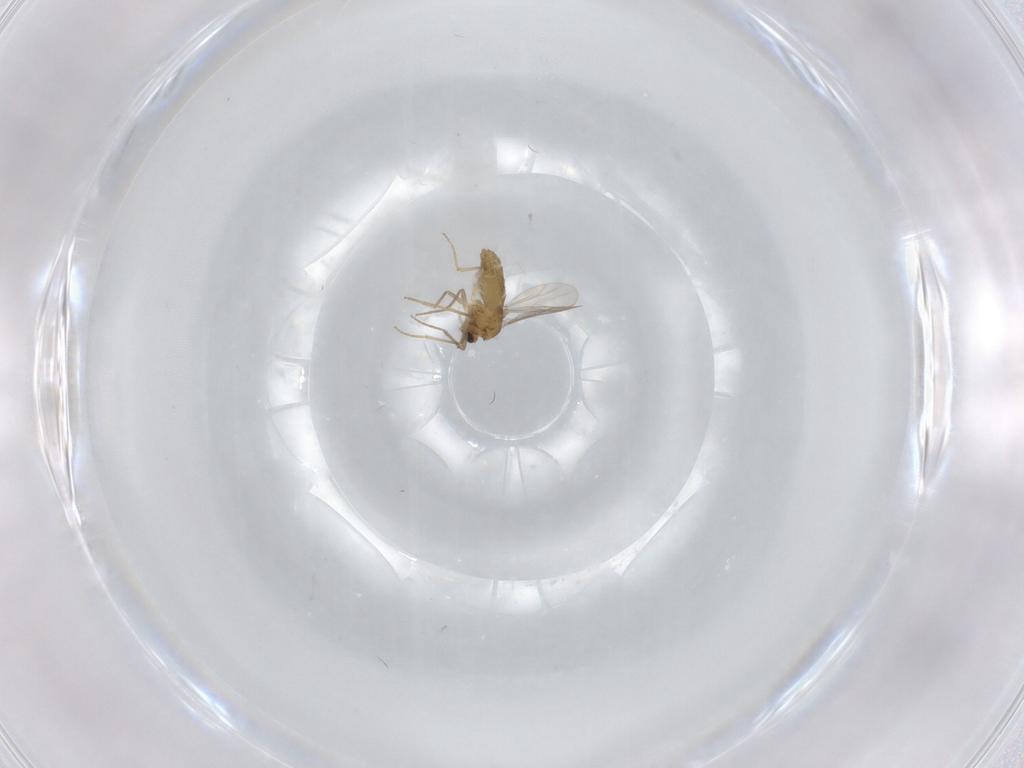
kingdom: Animalia
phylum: Arthropoda
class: Insecta
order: Diptera
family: Chironomidae
